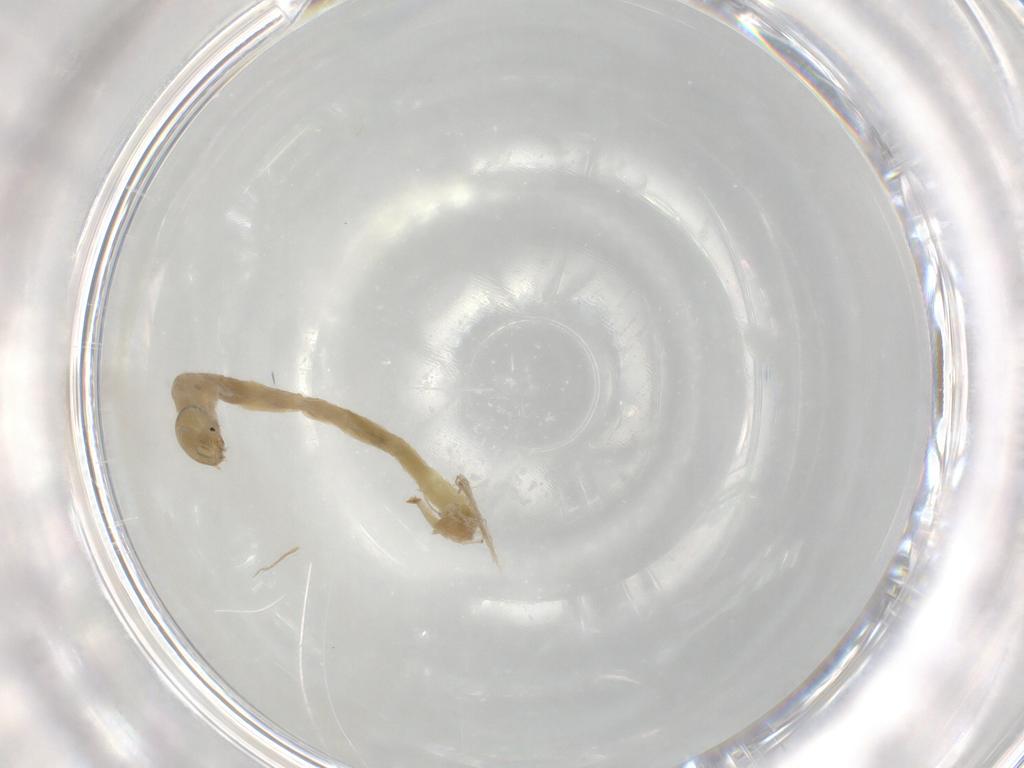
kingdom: Animalia
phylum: Arthropoda
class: Insecta
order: Diptera
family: Chironomidae
